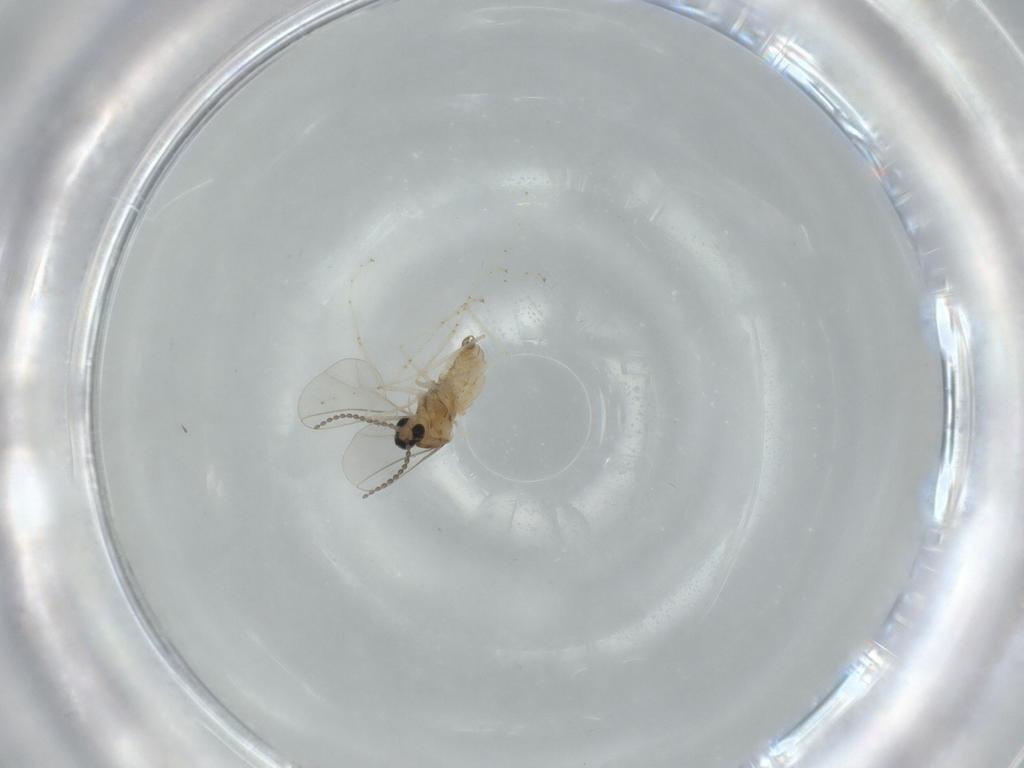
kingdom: Animalia
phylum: Arthropoda
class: Insecta
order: Diptera
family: Cecidomyiidae
